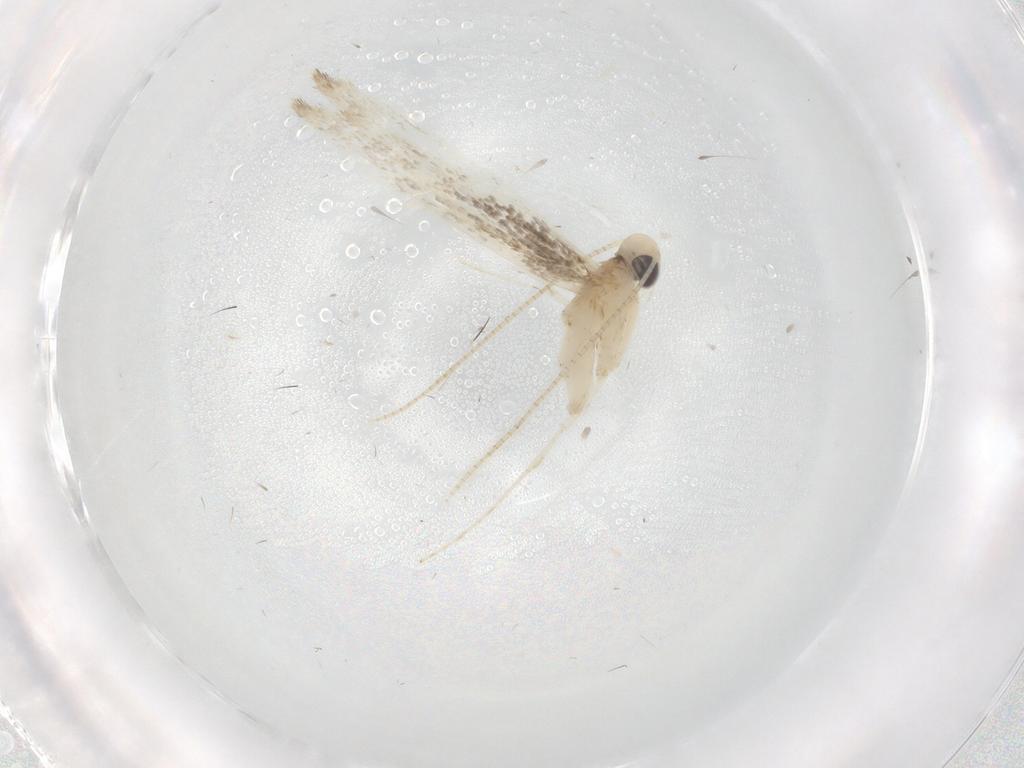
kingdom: Animalia
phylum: Arthropoda
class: Insecta
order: Lepidoptera
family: Gracillariidae
